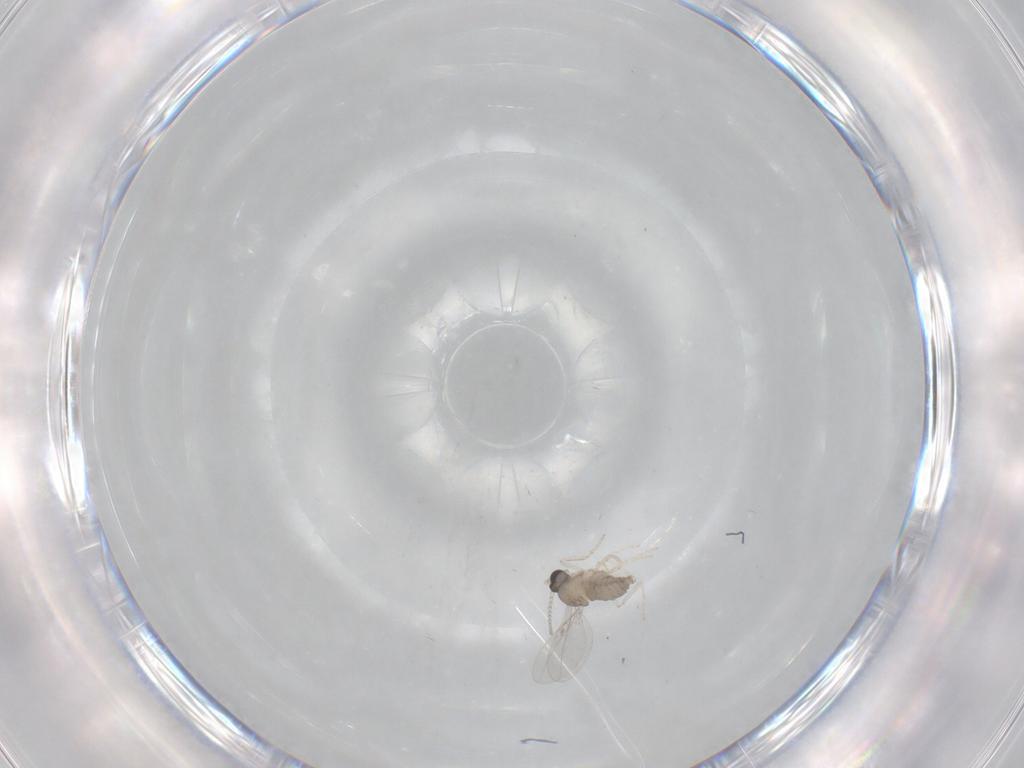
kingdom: Animalia
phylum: Arthropoda
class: Insecta
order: Diptera
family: Cecidomyiidae
